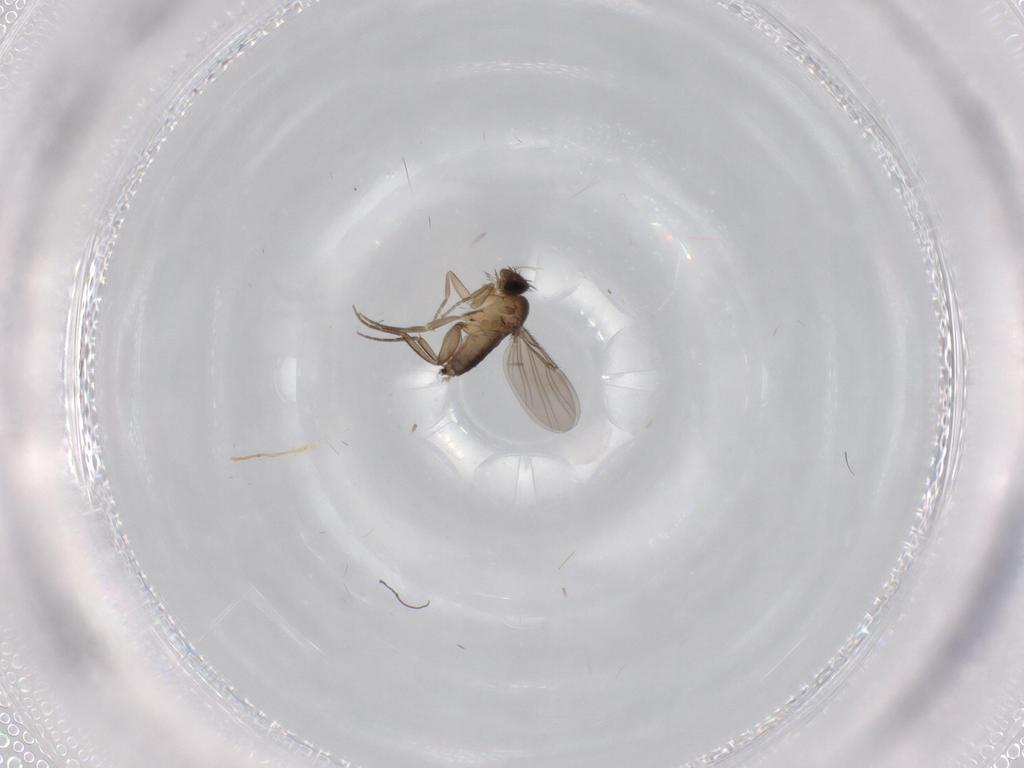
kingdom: Animalia
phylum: Arthropoda
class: Insecta
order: Diptera
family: Phoridae
